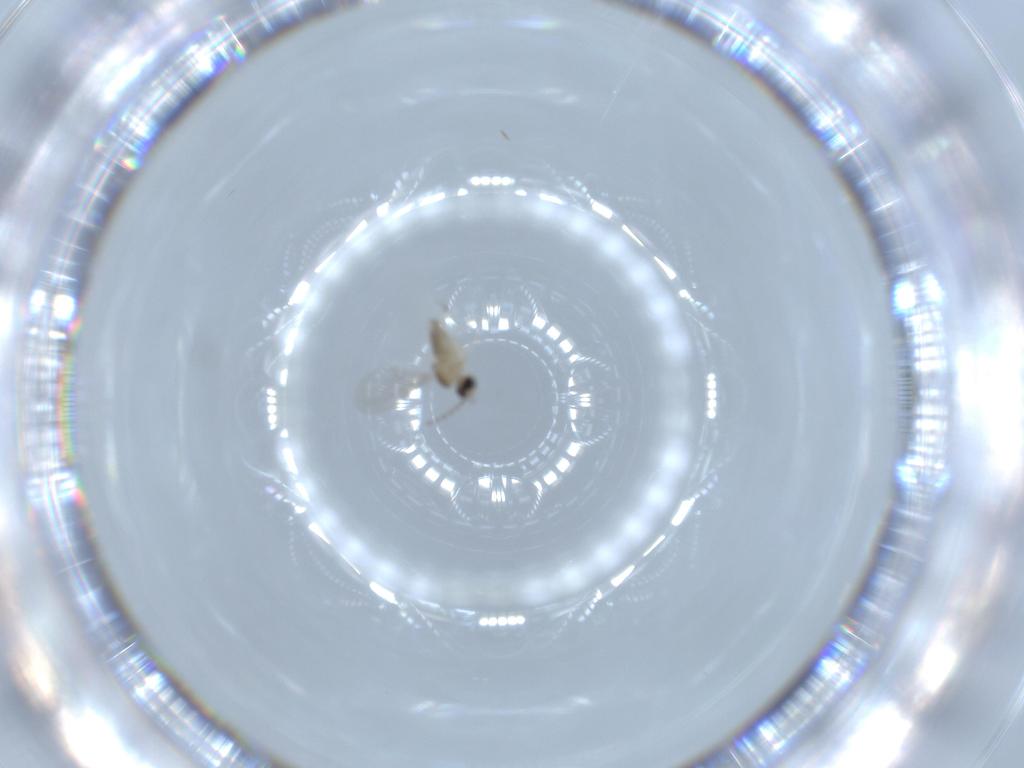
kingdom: Animalia
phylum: Arthropoda
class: Insecta
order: Diptera
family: Cecidomyiidae
